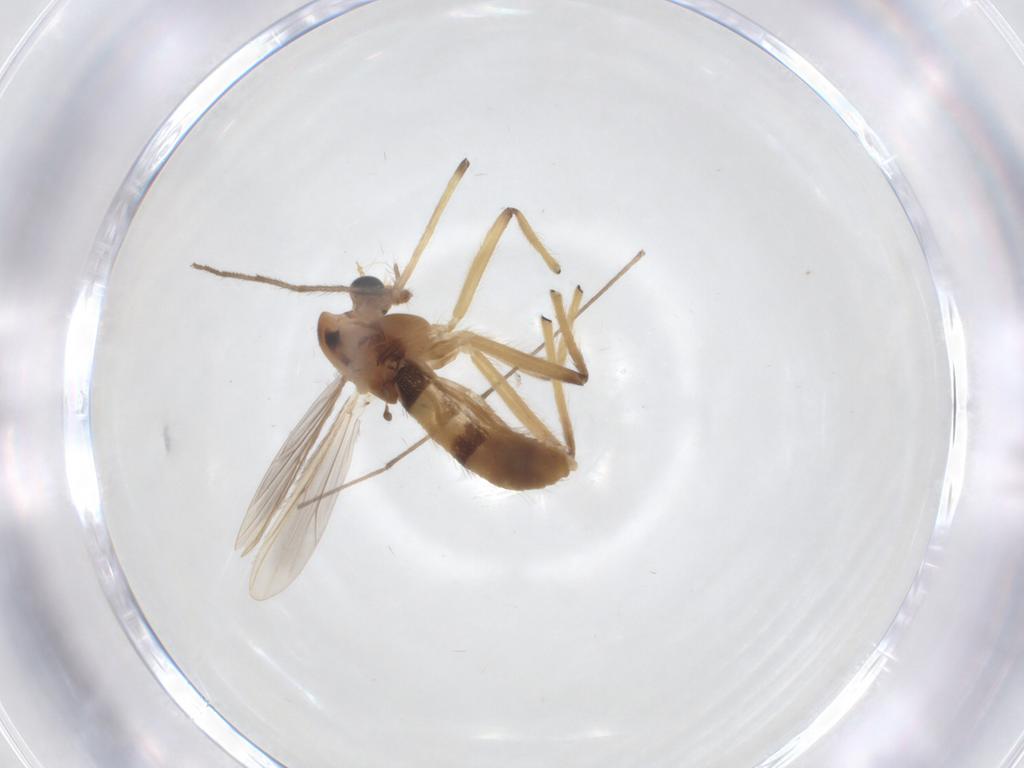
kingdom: Animalia
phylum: Arthropoda
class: Insecta
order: Diptera
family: Chironomidae
